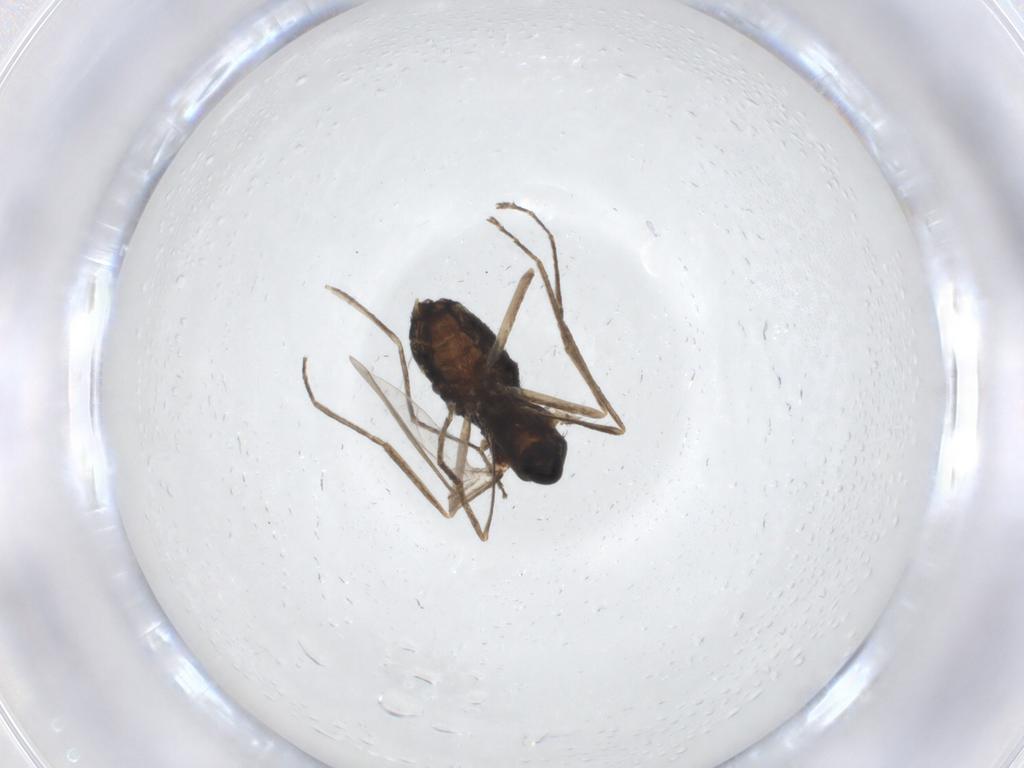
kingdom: Animalia
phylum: Arthropoda
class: Insecta
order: Diptera
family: Cecidomyiidae
